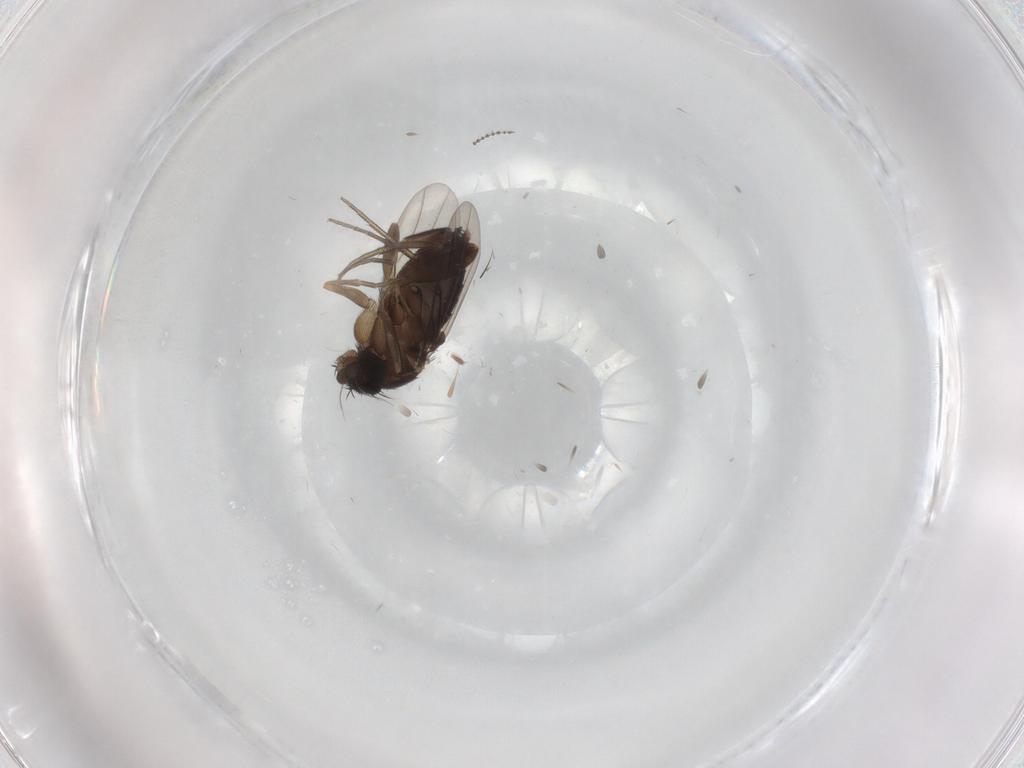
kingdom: Animalia
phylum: Arthropoda
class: Insecta
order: Diptera
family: Phoridae
